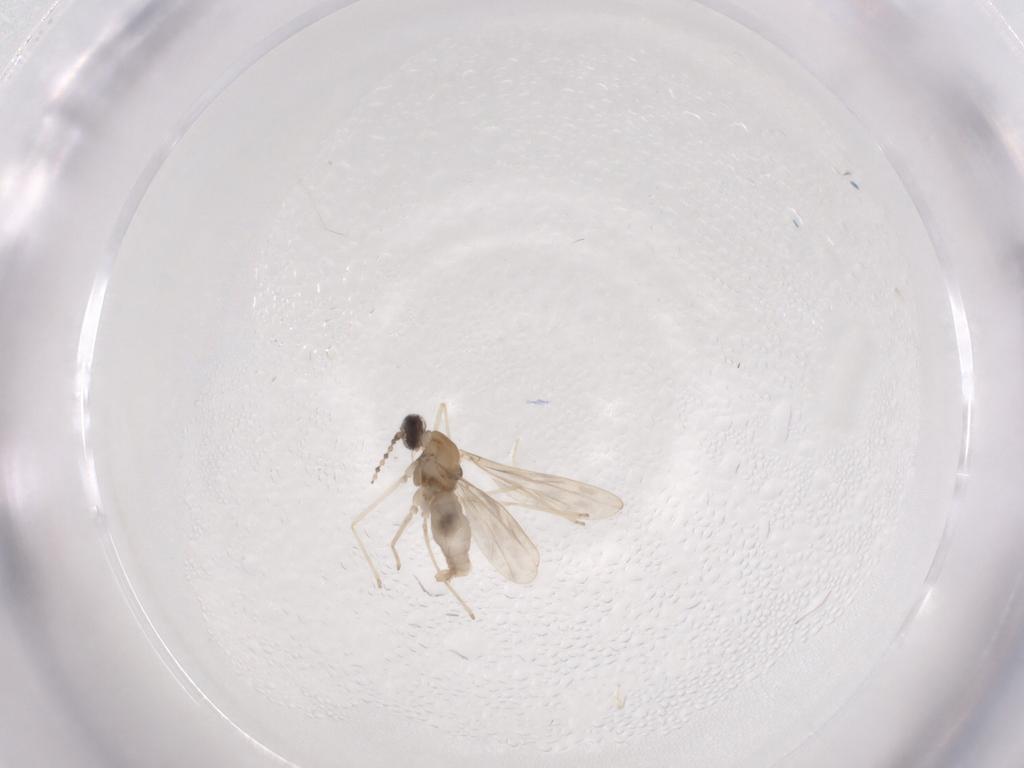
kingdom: Animalia
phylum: Arthropoda
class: Insecta
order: Diptera
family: Cecidomyiidae
